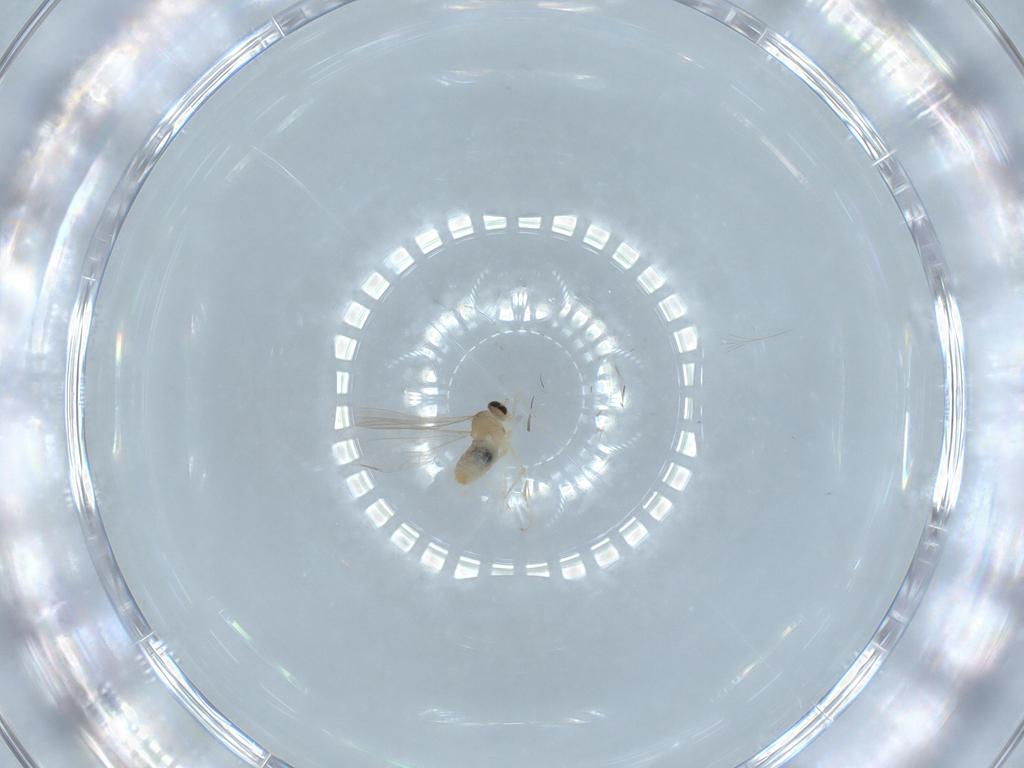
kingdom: Animalia
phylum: Arthropoda
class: Insecta
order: Diptera
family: Cecidomyiidae
